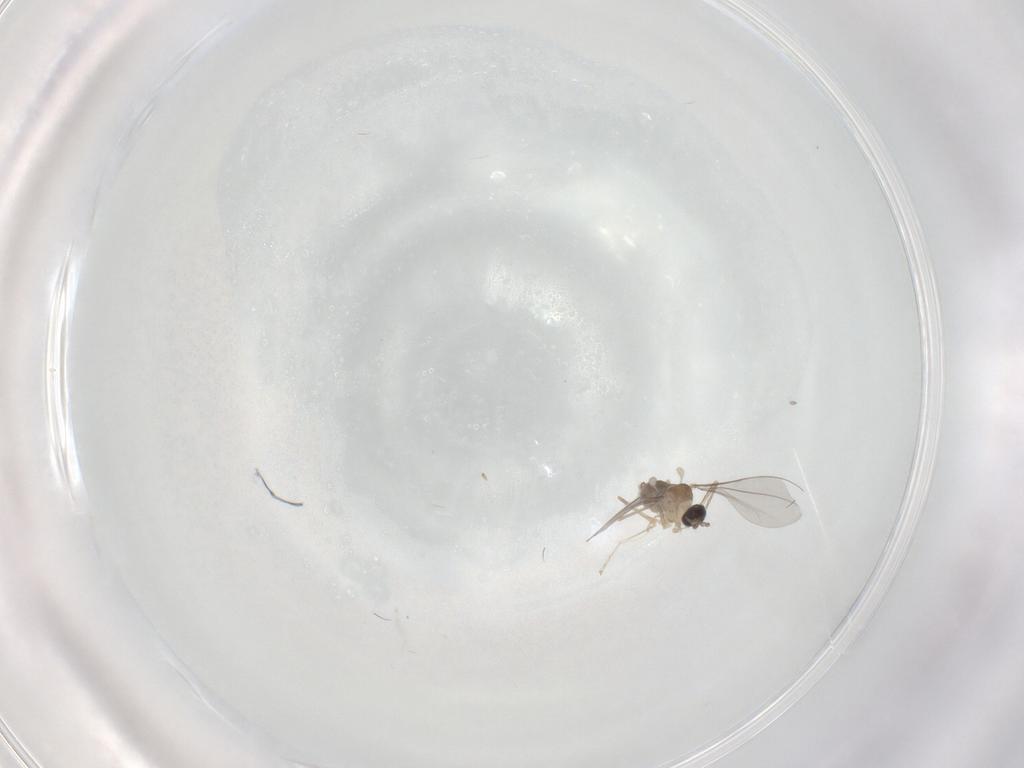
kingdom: Animalia
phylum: Arthropoda
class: Insecta
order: Diptera
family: Cecidomyiidae
